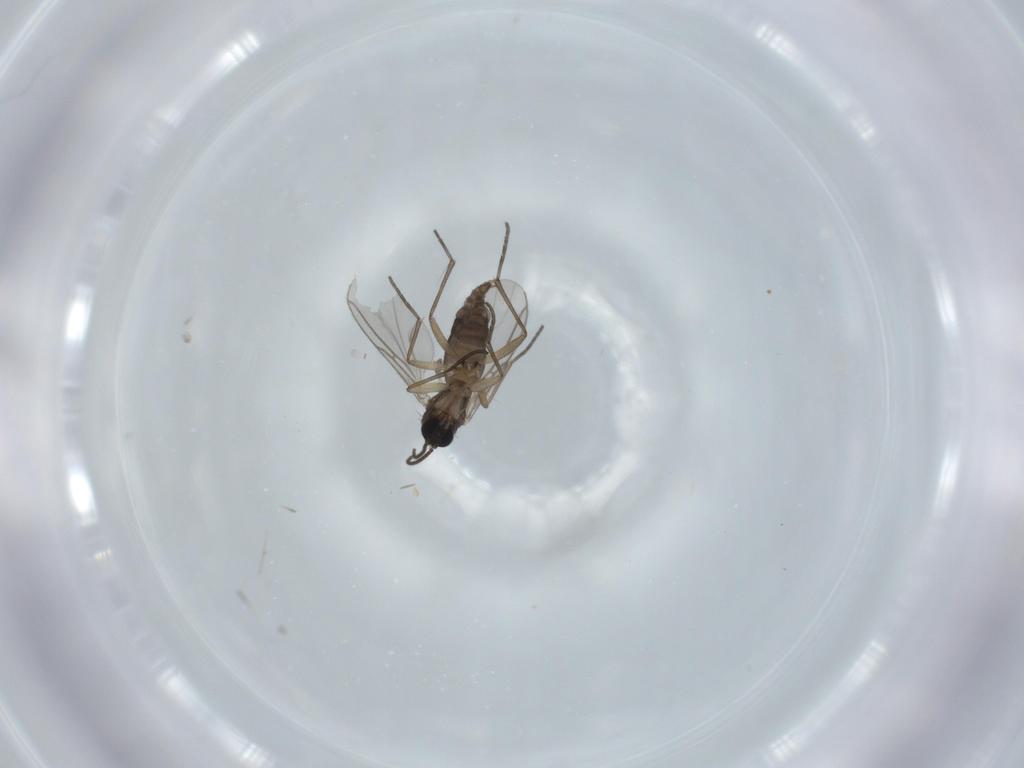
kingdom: Animalia
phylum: Arthropoda
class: Insecta
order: Diptera
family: Sciaridae
